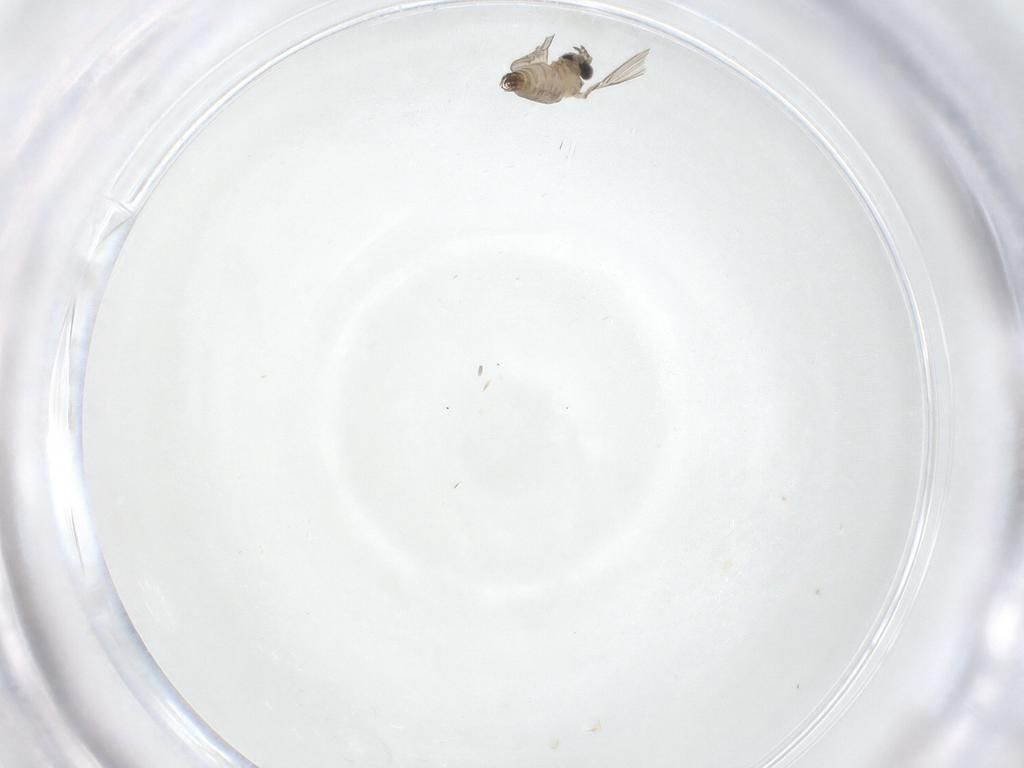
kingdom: Animalia
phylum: Arthropoda
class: Insecta
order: Diptera
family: Psychodidae
